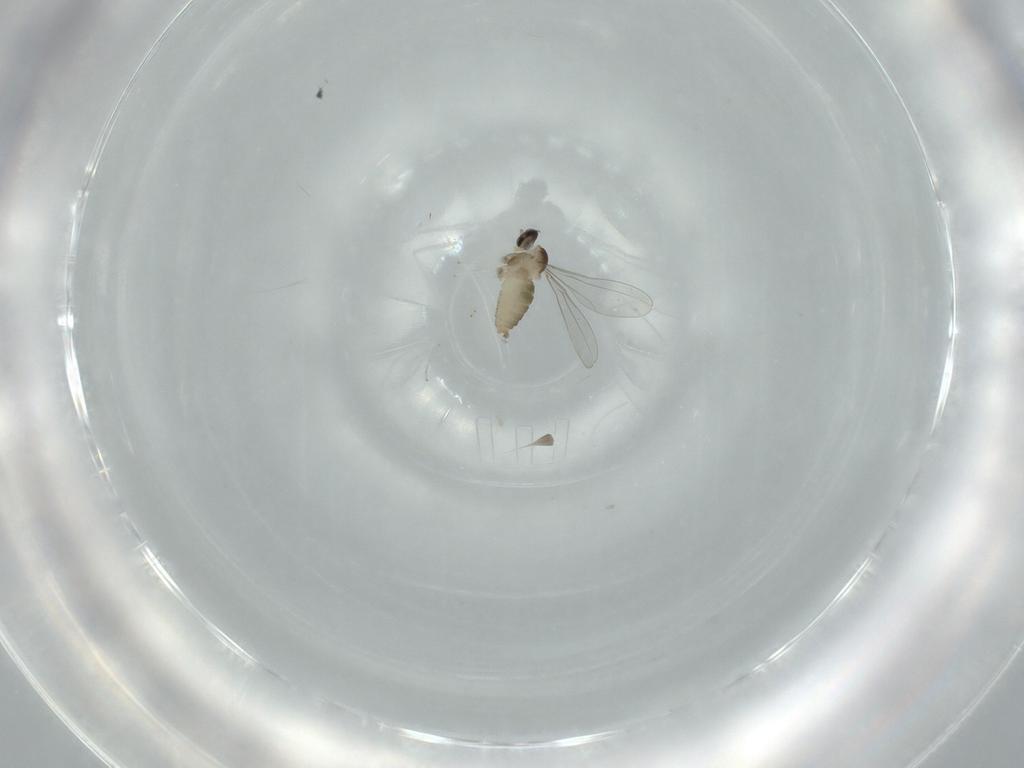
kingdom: Animalia
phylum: Arthropoda
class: Insecta
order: Diptera
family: Cecidomyiidae
